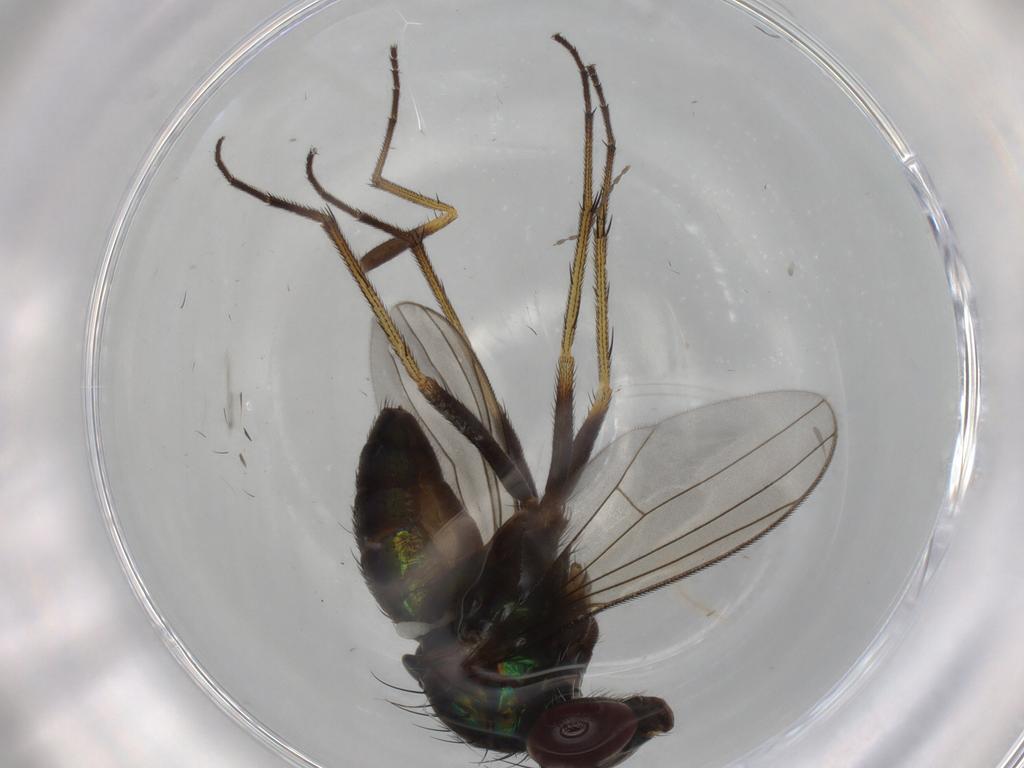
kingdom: Animalia
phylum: Arthropoda
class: Insecta
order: Diptera
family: Dolichopodidae
